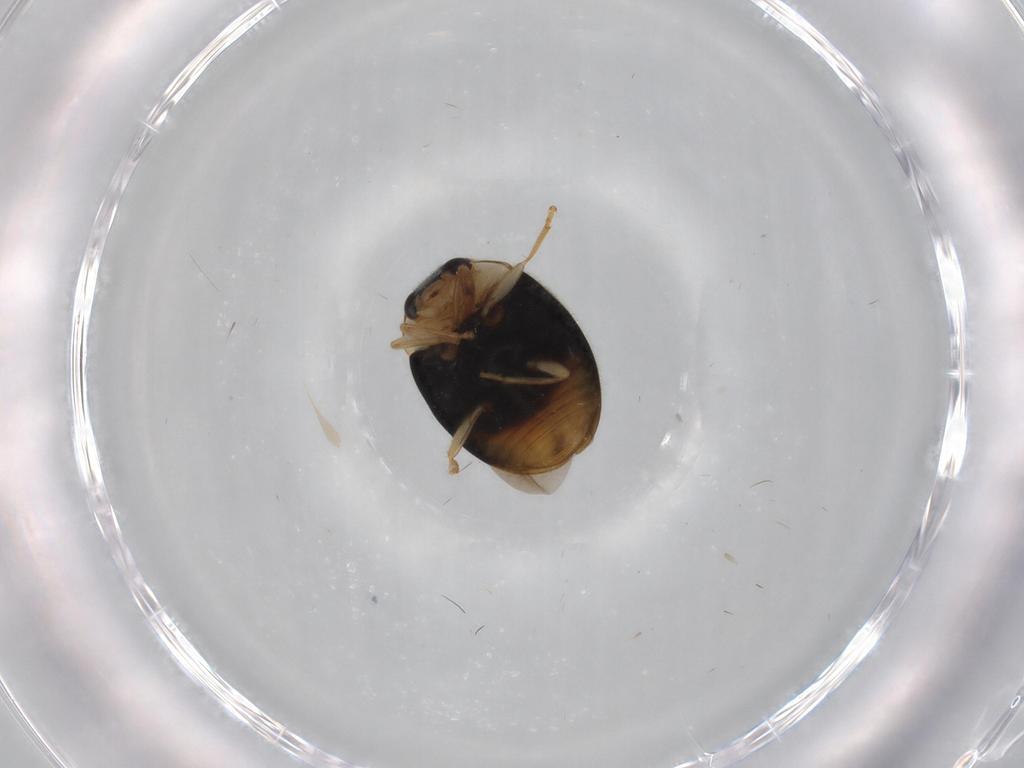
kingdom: Animalia
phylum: Arthropoda
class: Insecta
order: Coleoptera
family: Coccinellidae
